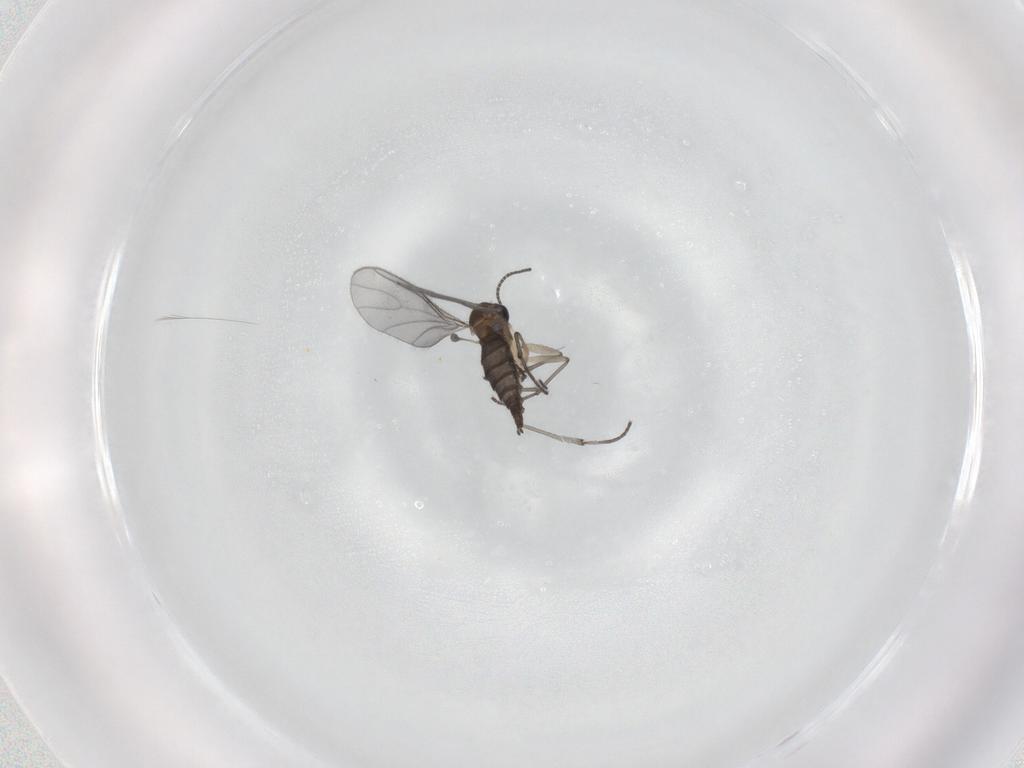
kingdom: Animalia
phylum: Arthropoda
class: Insecta
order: Diptera
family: Sciaridae
